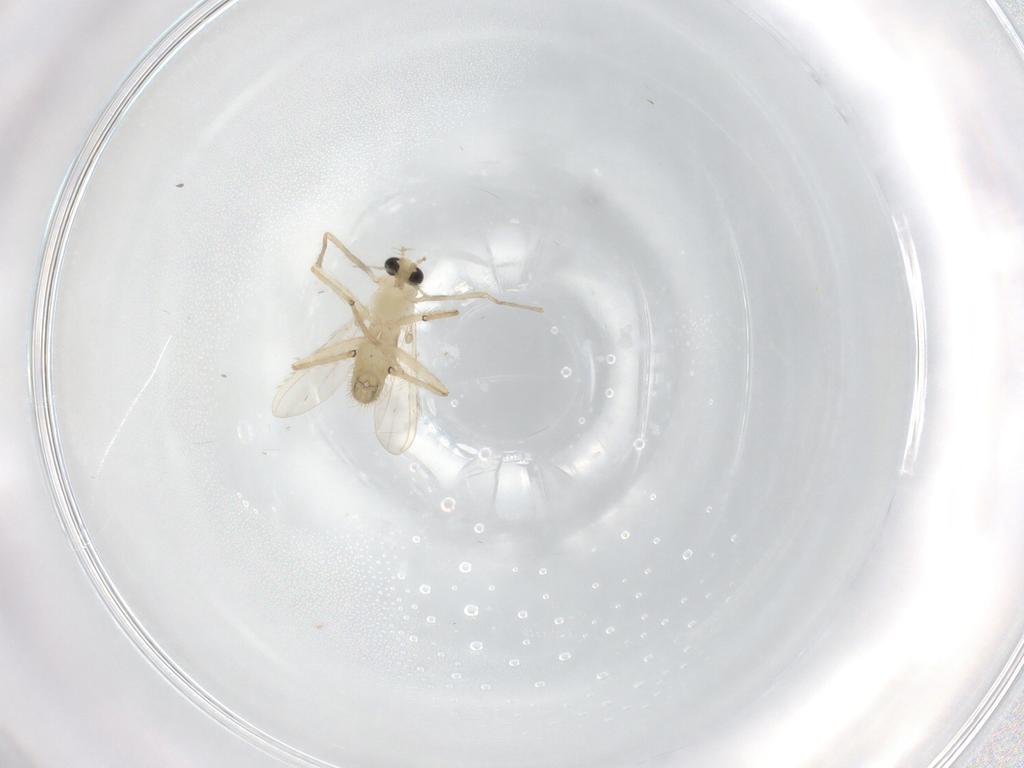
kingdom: Animalia
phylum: Arthropoda
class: Insecta
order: Diptera
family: Chironomidae
